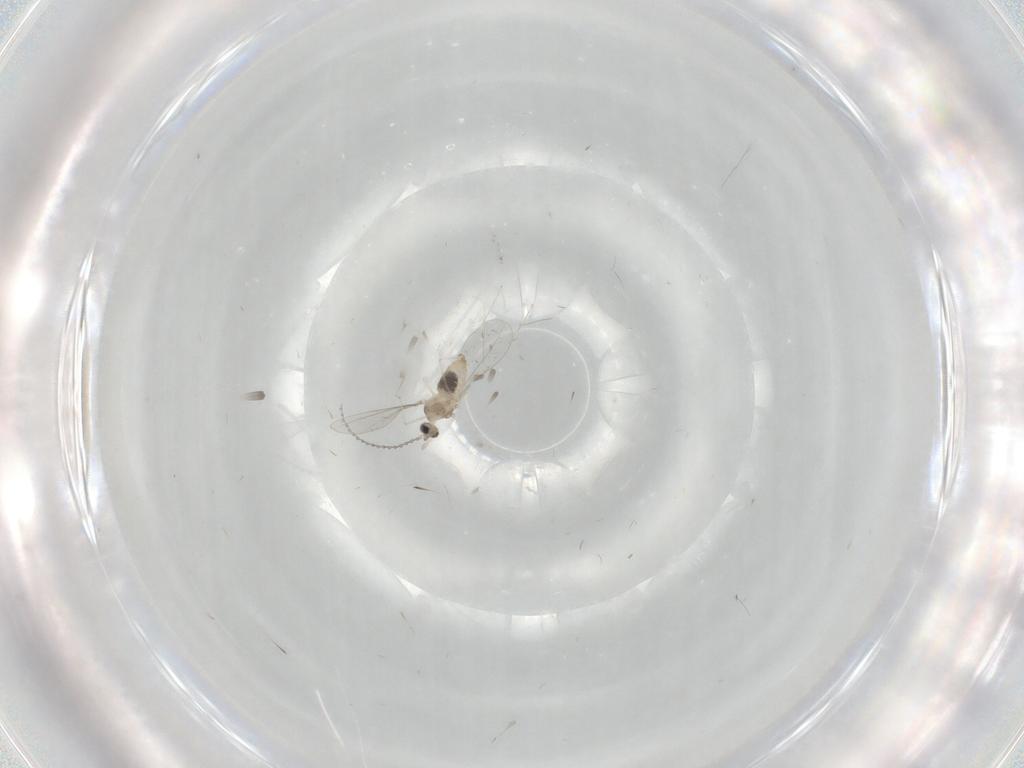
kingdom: Animalia
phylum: Arthropoda
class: Insecta
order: Diptera
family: Cecidomyiidae
